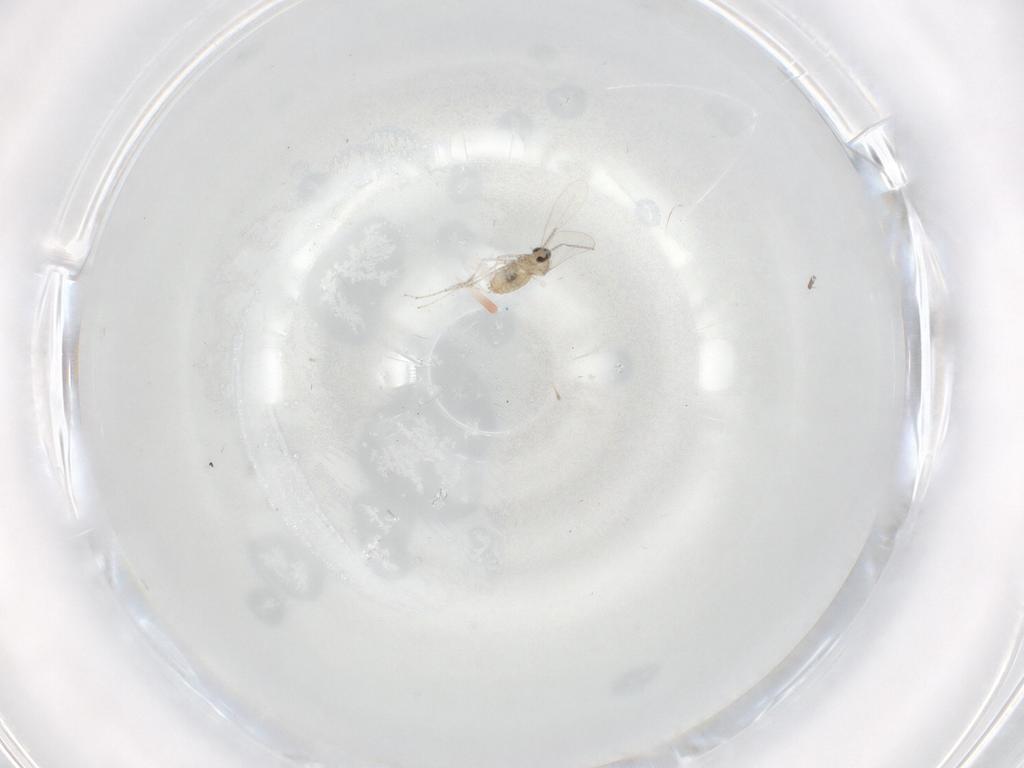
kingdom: Animalia
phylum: Arthropoda
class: Insecta
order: Diptera
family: Cecidomyiidae
